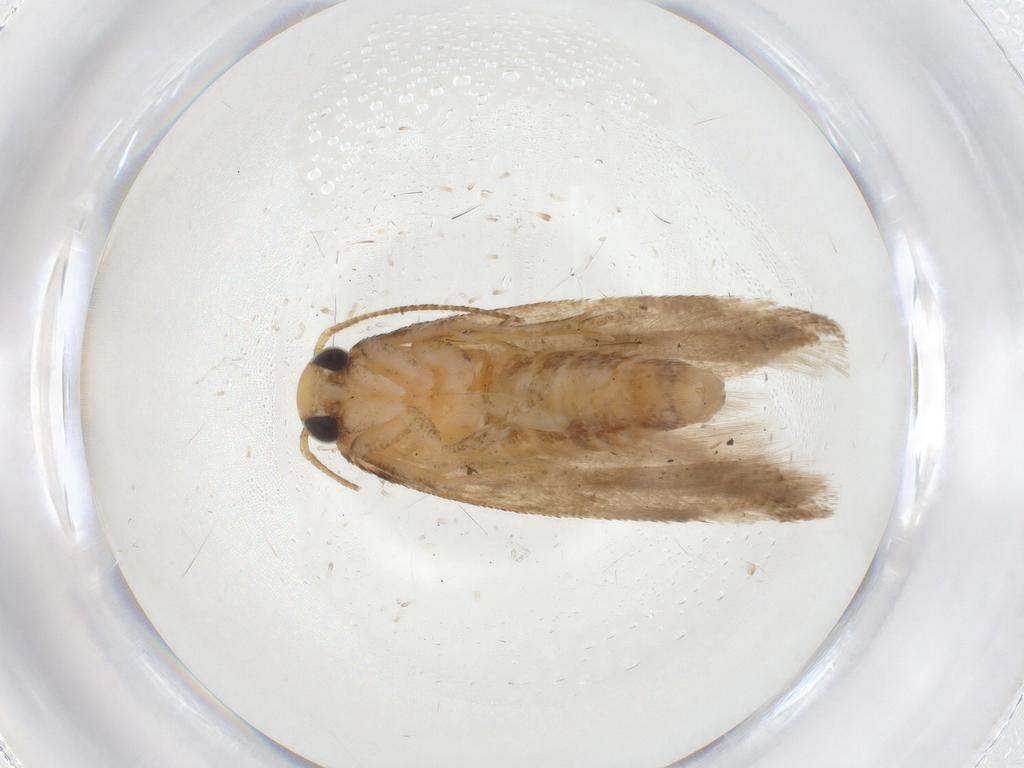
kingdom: Animalia
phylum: Arthropoda
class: Insecta
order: Lepidoptera
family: Gelechiidae
